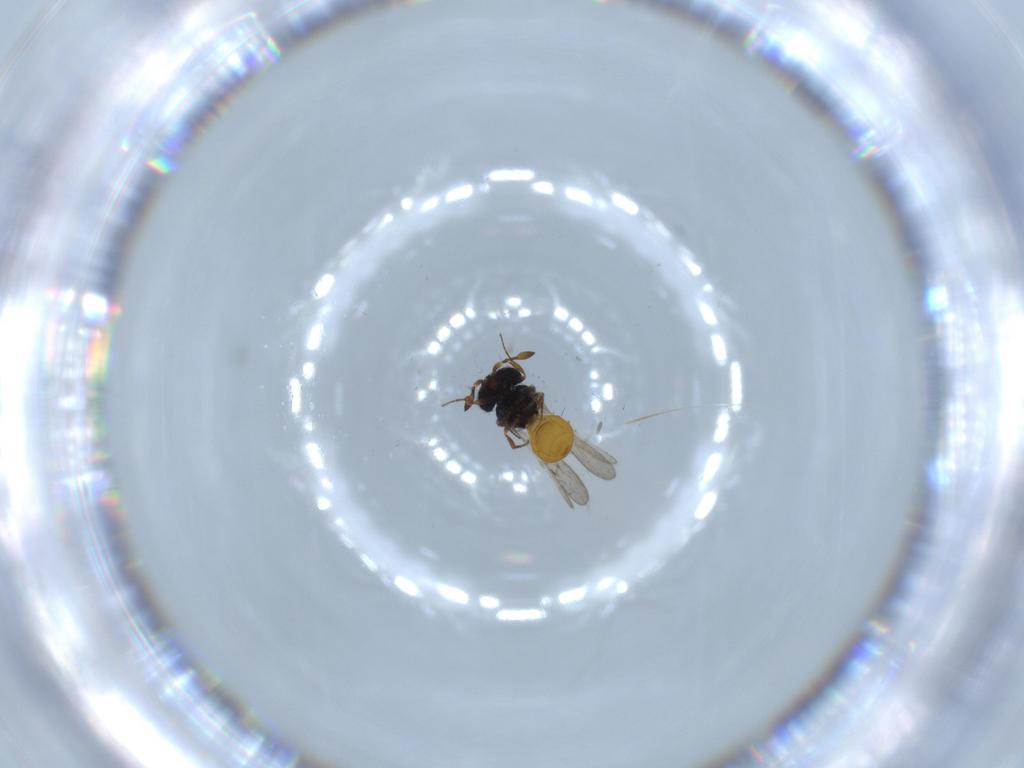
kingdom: Animalia
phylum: Arthropoda
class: Insecta
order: Hymenoptera
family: Scelionidae
